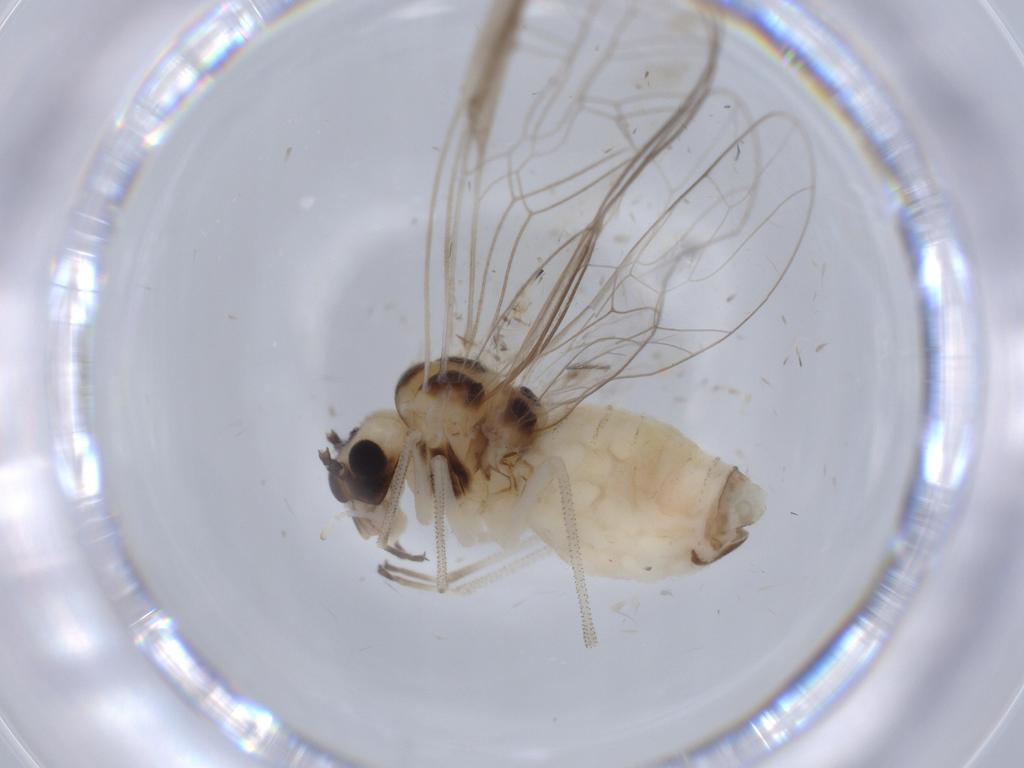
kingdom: Animalia
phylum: Arthropoda
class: Insecta
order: Psocodea
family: Stenopsocidae
